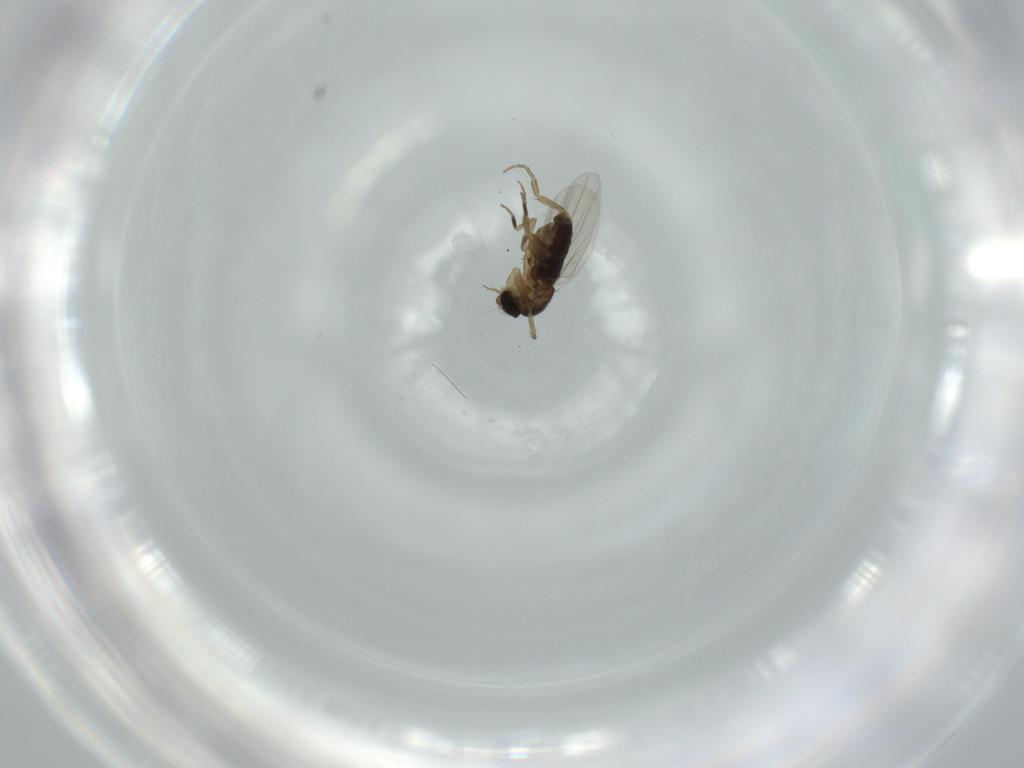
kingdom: Animalia
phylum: Arthropoda
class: Insecta
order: Diptera
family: Phoridae
